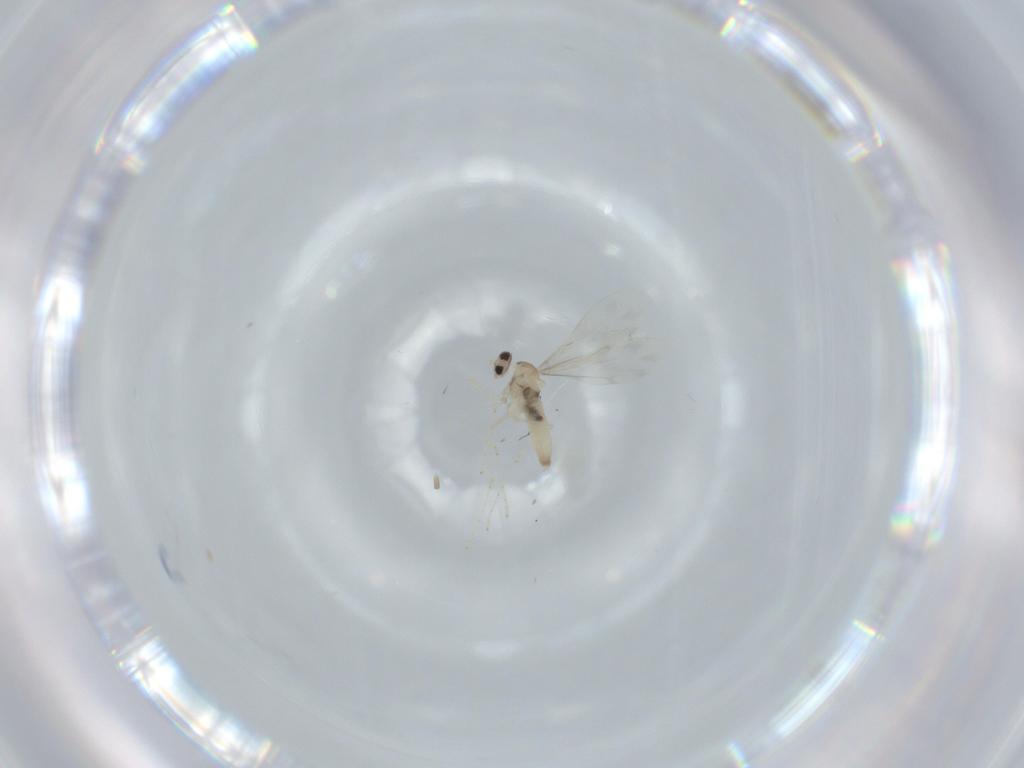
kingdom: Animalia
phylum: Arthropoda
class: Insecta
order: Diptera
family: Cecidomyiidae
